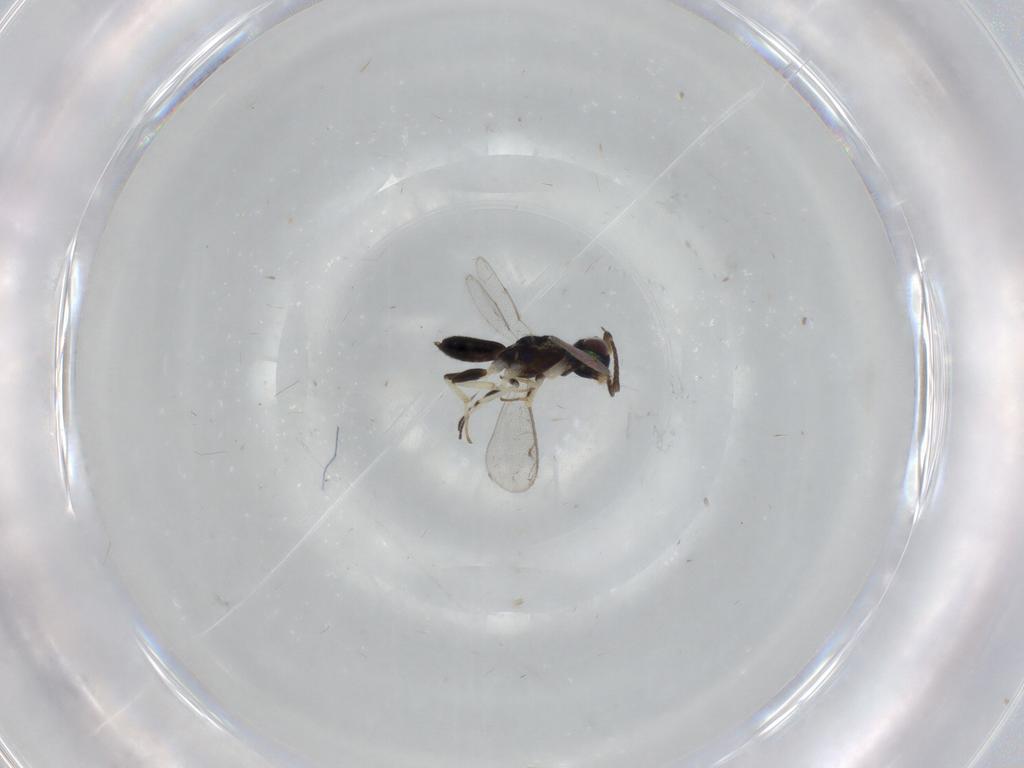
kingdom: Animalia
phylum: Arthropoda
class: Insecta
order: Hymenoptera
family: Eupelmidae
